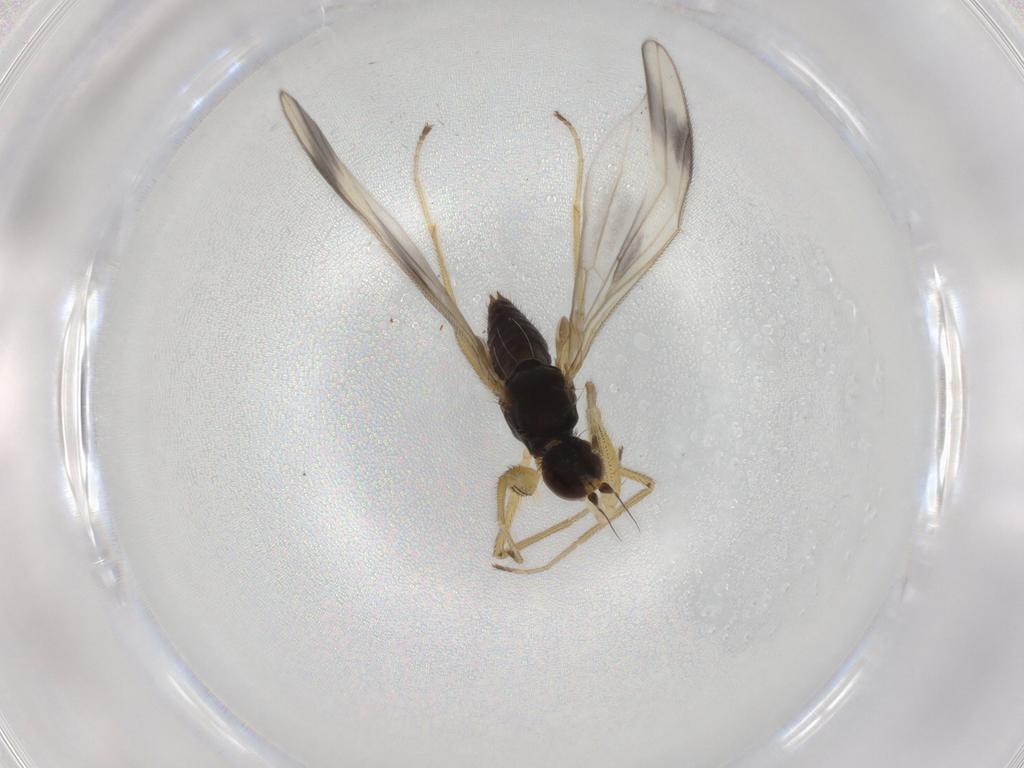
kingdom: Animalia
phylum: Arthropoda
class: Insecta
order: Diptera
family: Empididae
